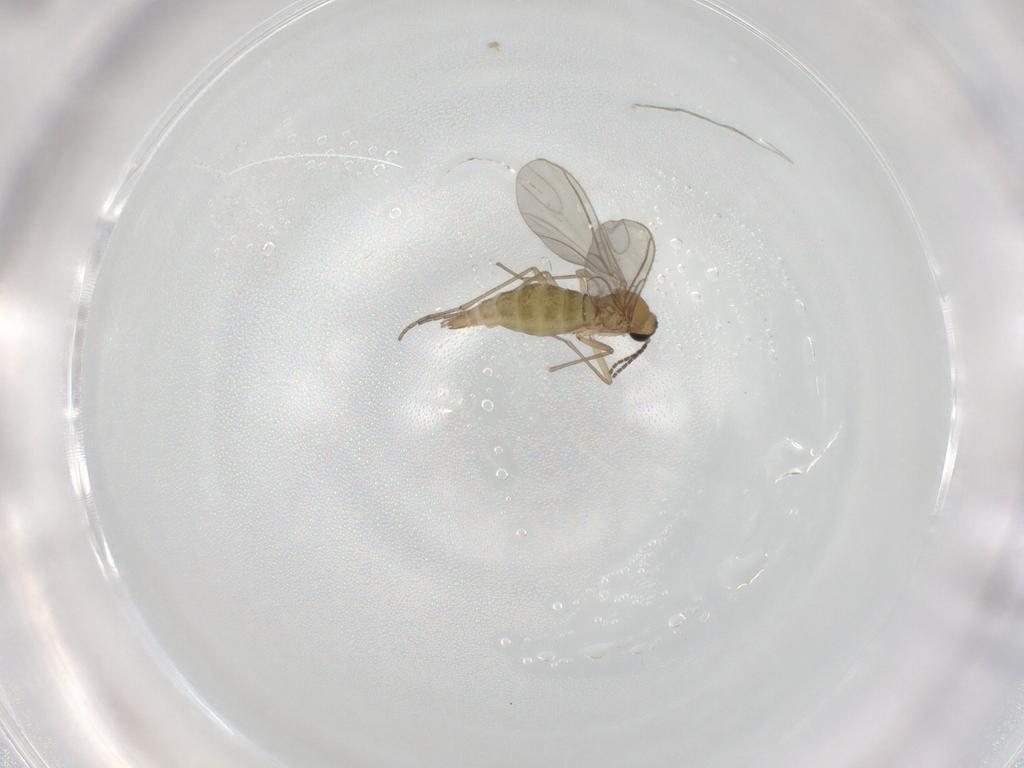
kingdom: Animalia
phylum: Arthropoda
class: Insecta
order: Diptera
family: Sciaridae
